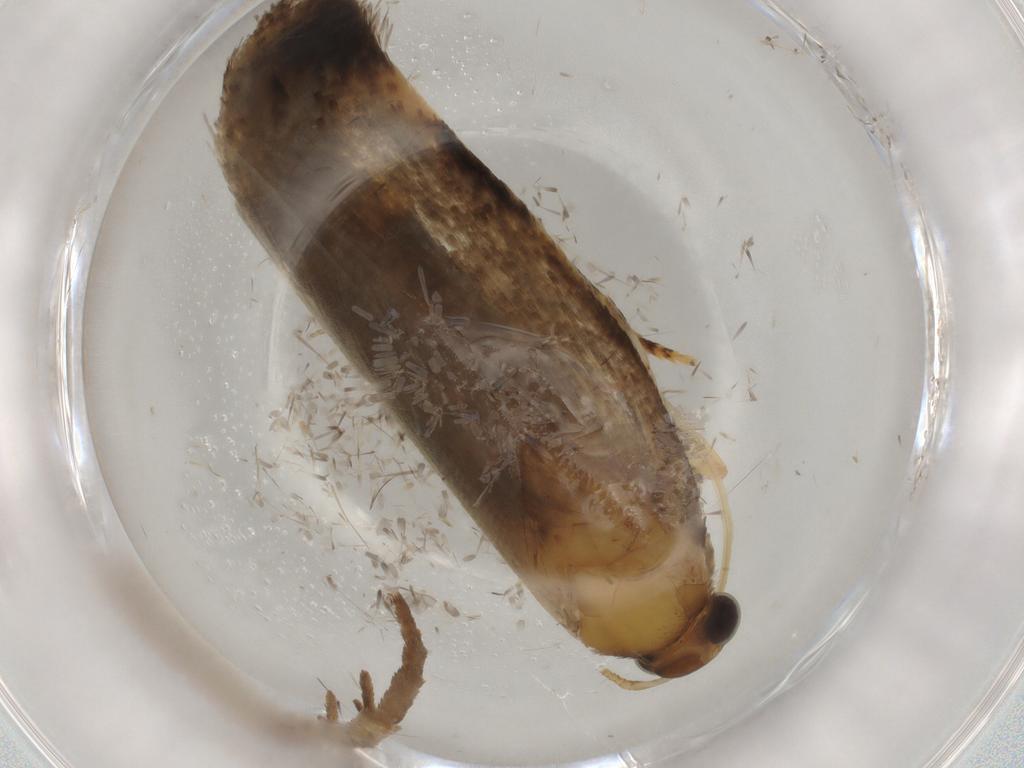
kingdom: Animalia
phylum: Arthropoda
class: Insecta
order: Lepidoptera
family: Oecophoridae
